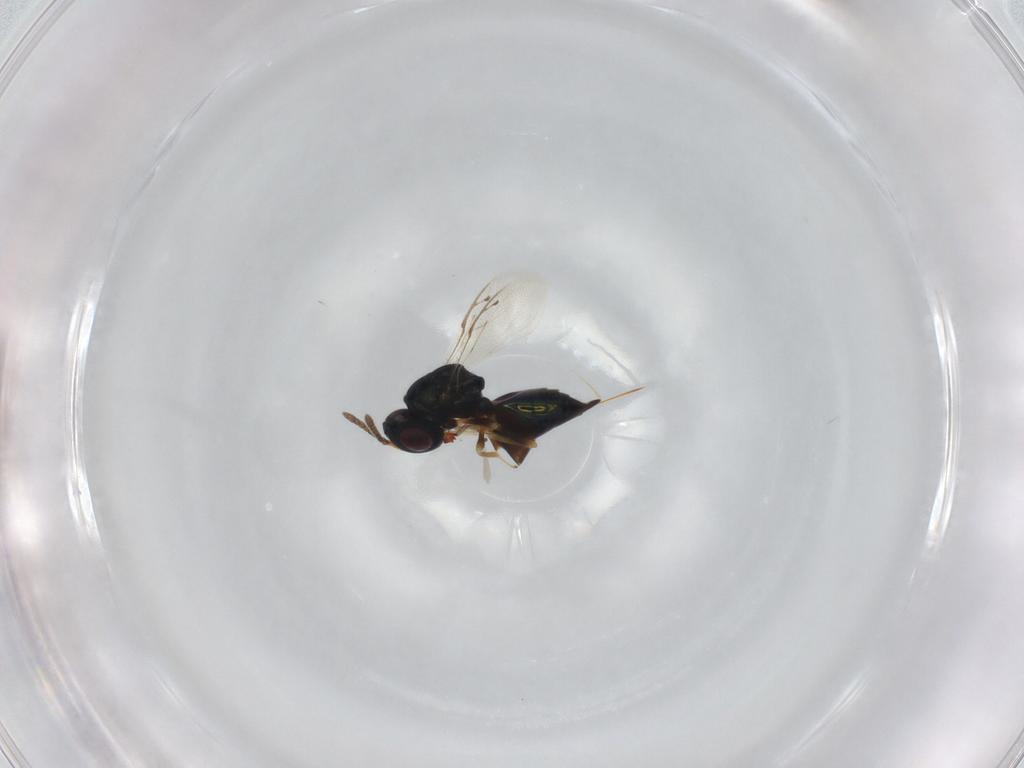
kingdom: Animalia
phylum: Arthropoda
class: Insecta
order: Hymenoptera
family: Pteromalidae
